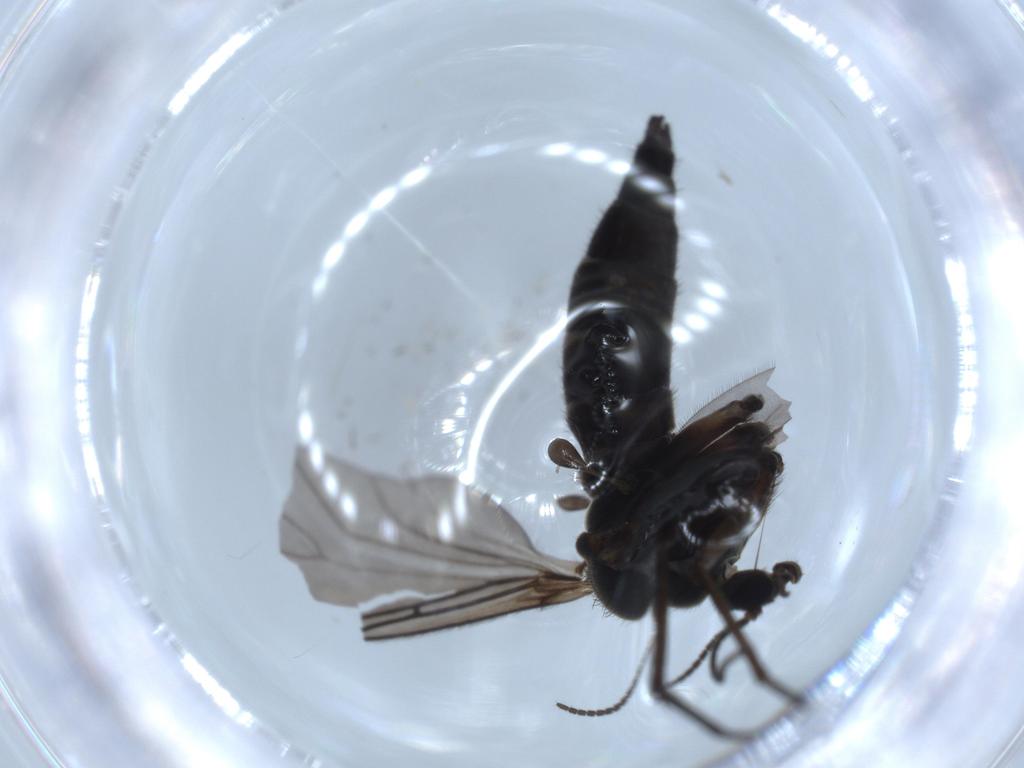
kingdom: Animalia
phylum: Arthropoda
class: Insecta
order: Diptera
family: Sciaridae
